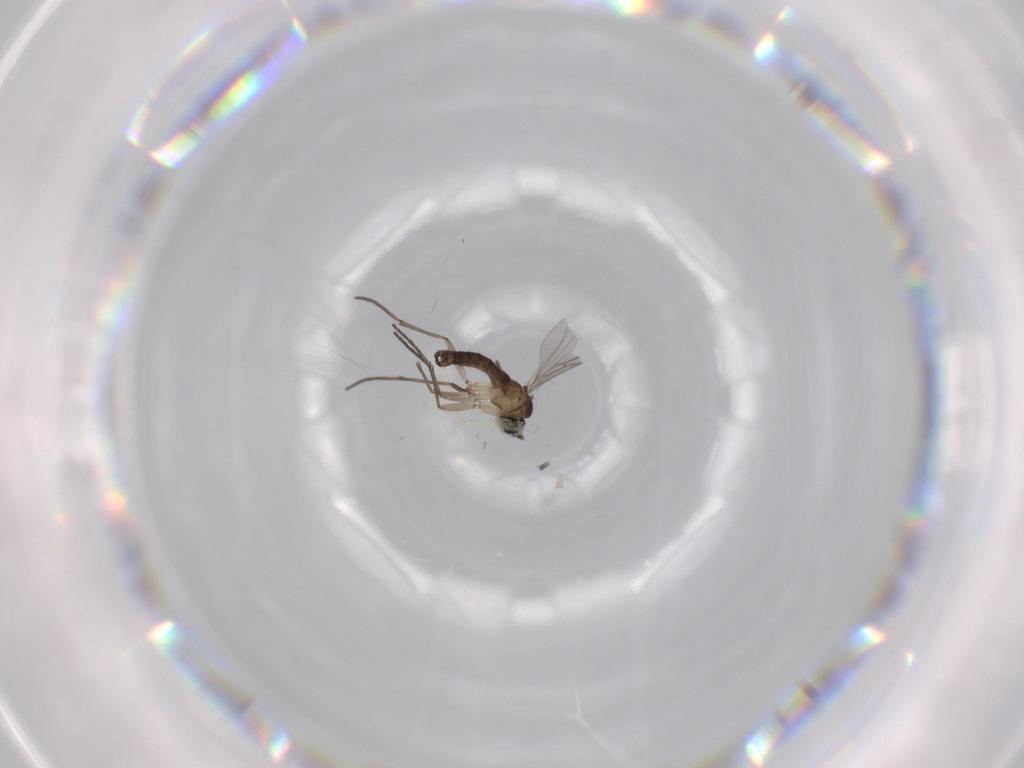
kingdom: Animalia
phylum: Arthropoda
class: Insecta
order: Diptera
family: Sciaridae
